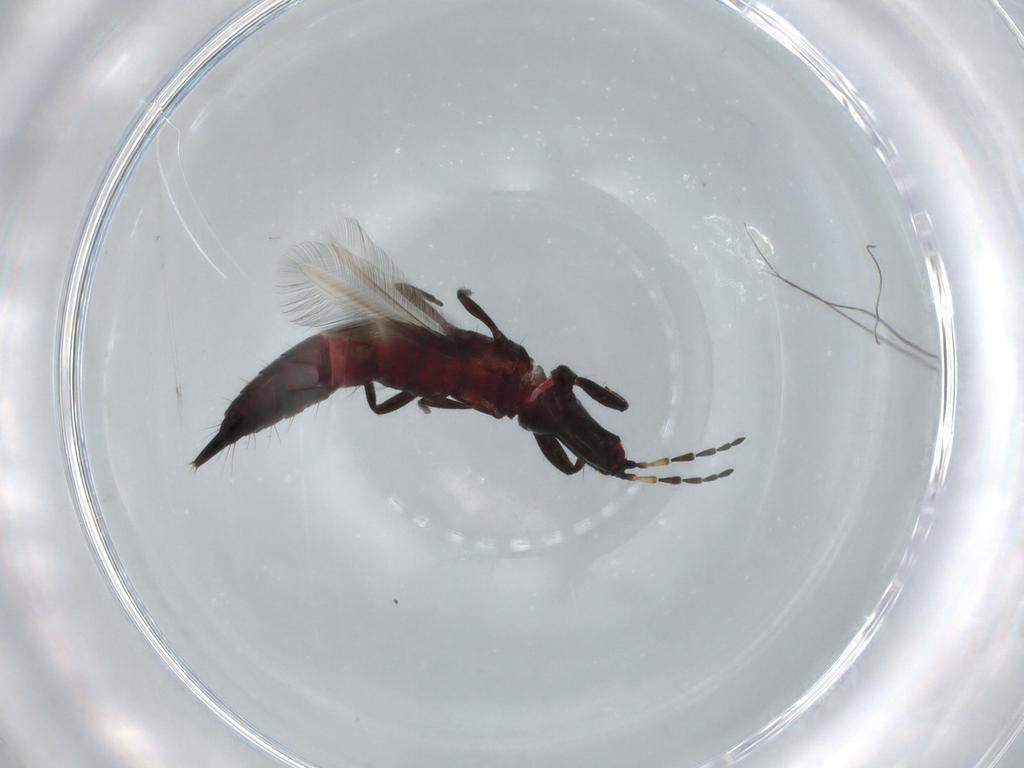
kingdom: Animalia
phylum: Arthropoda
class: Insecta
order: Thysanoptera
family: Phlaeothripidae
